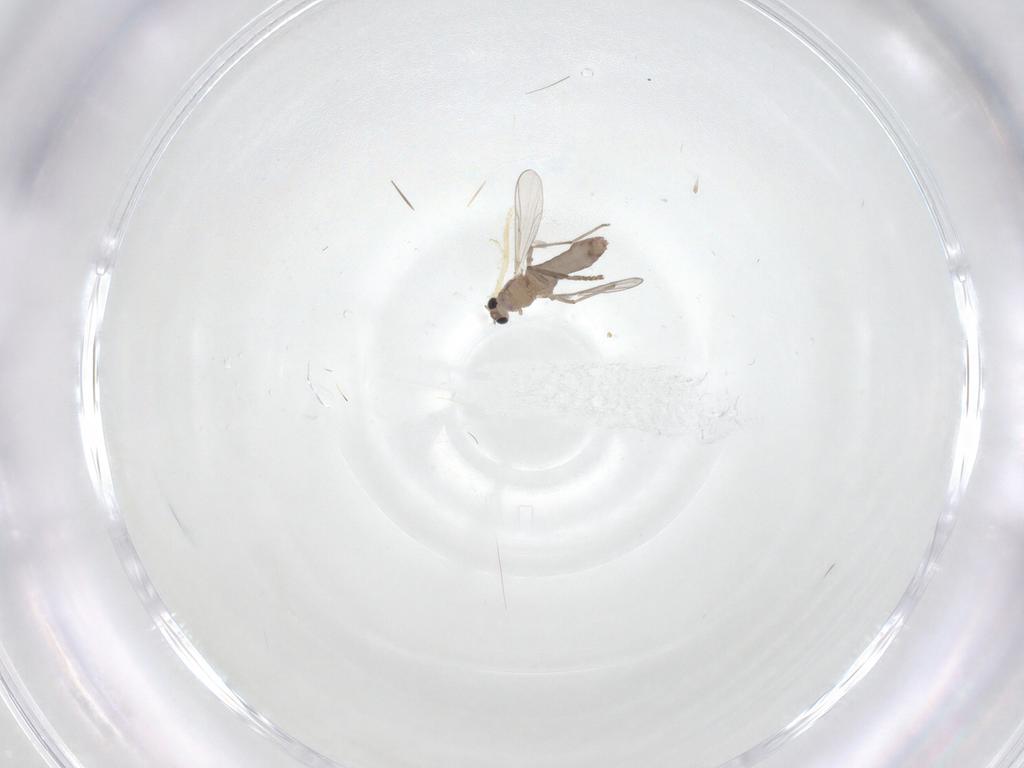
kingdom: Animalia
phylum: Arthropoda
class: Insecta
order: Diptera
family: Chironomidae
